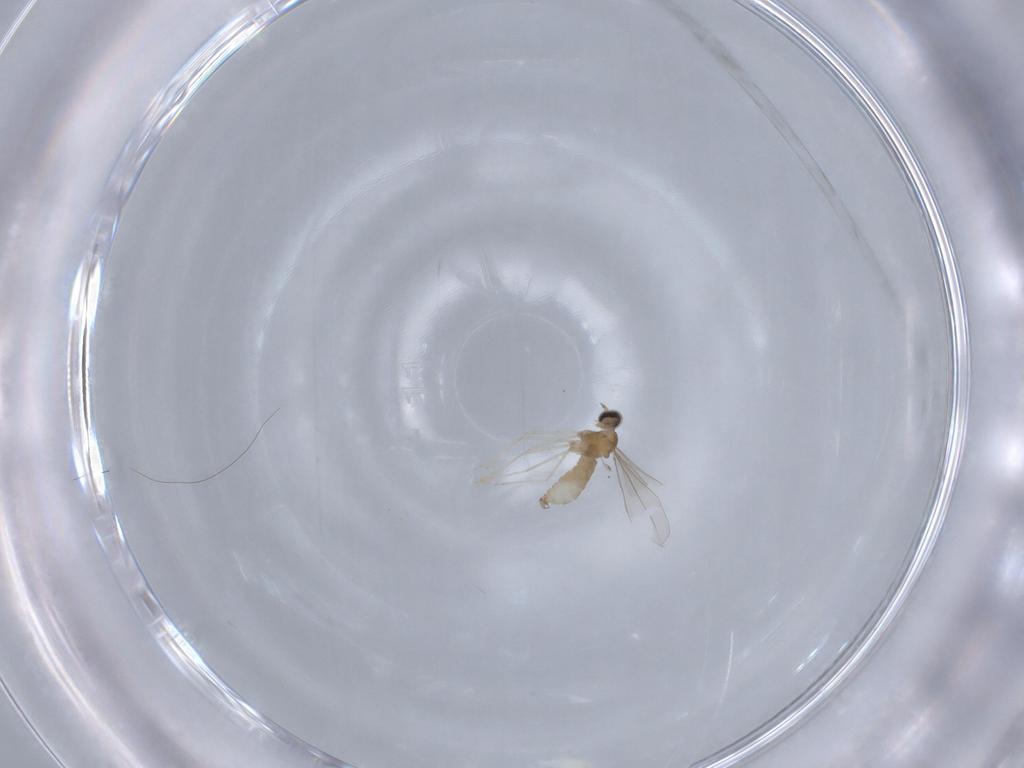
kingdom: Animalia
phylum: Arthropoda
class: Insecta
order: Diptera
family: Cecidomyiidae
